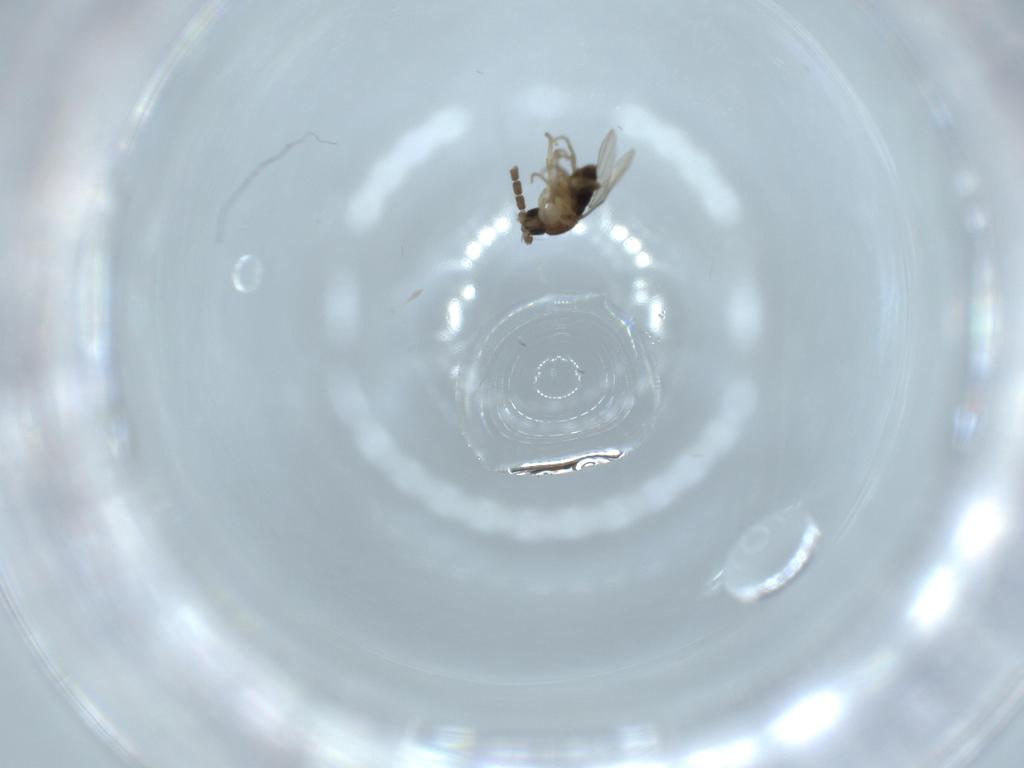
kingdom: Animalia
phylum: Arthropoda
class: Insecta
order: Diptera
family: Phoridae
